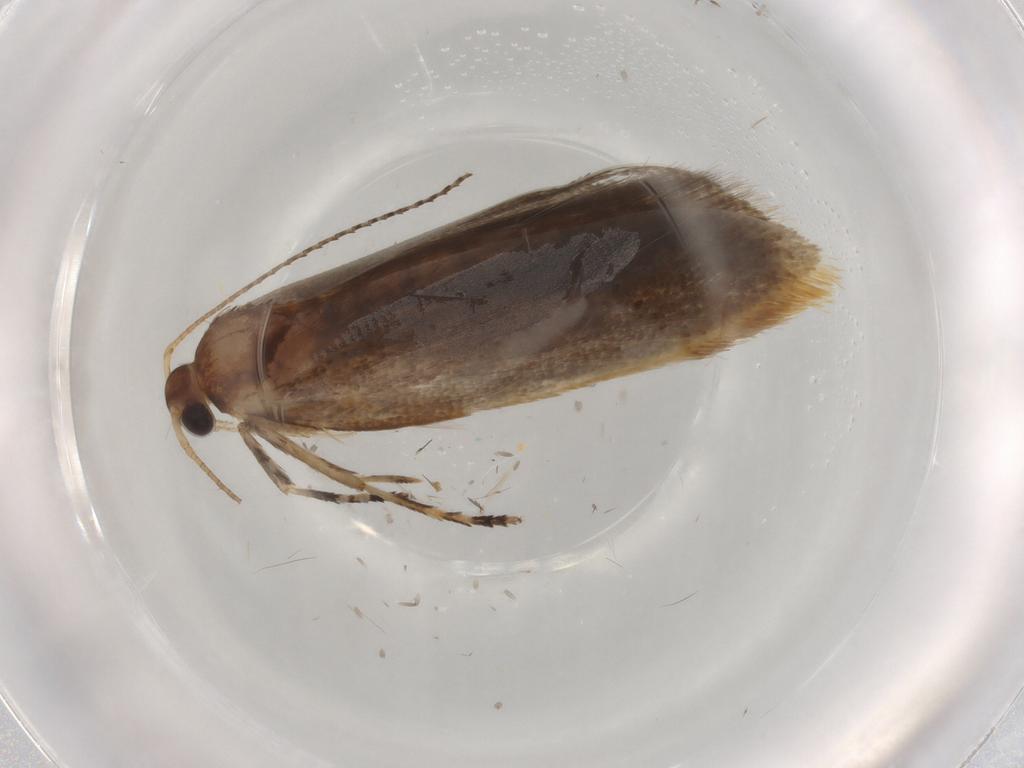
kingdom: Animalia
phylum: Arthropoda
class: Insecta
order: Lepidoptera
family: Oecophoridae
